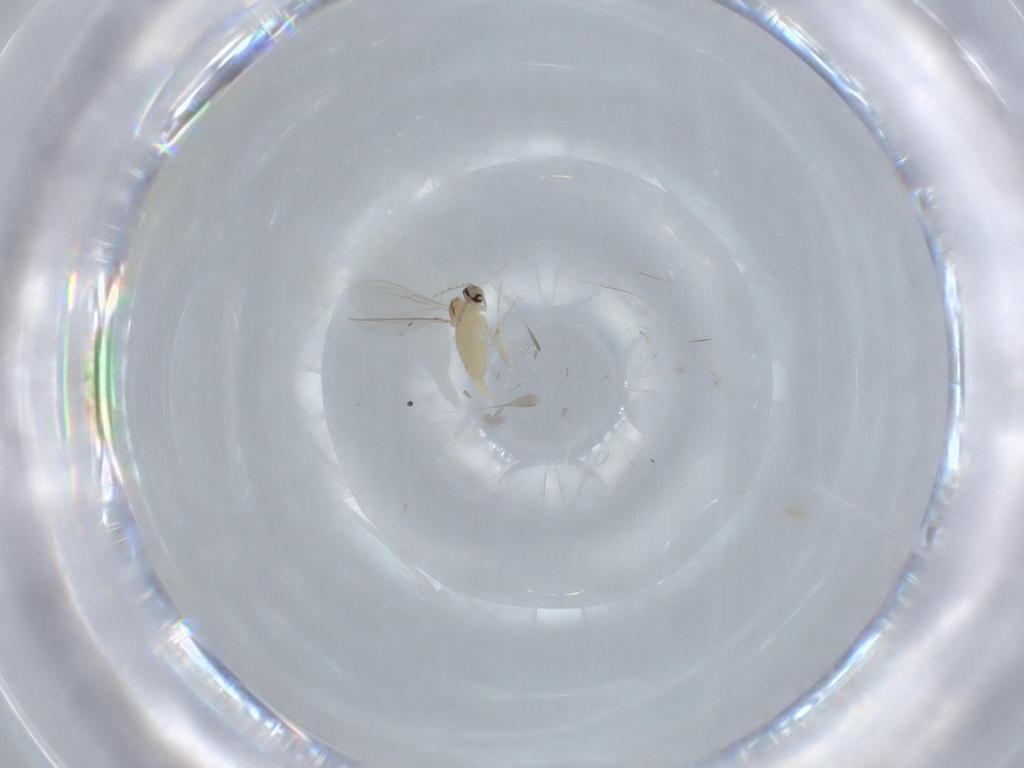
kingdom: Animalia
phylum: Arthropoda
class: Insecta
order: Diptera
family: Cecidomyiidae
